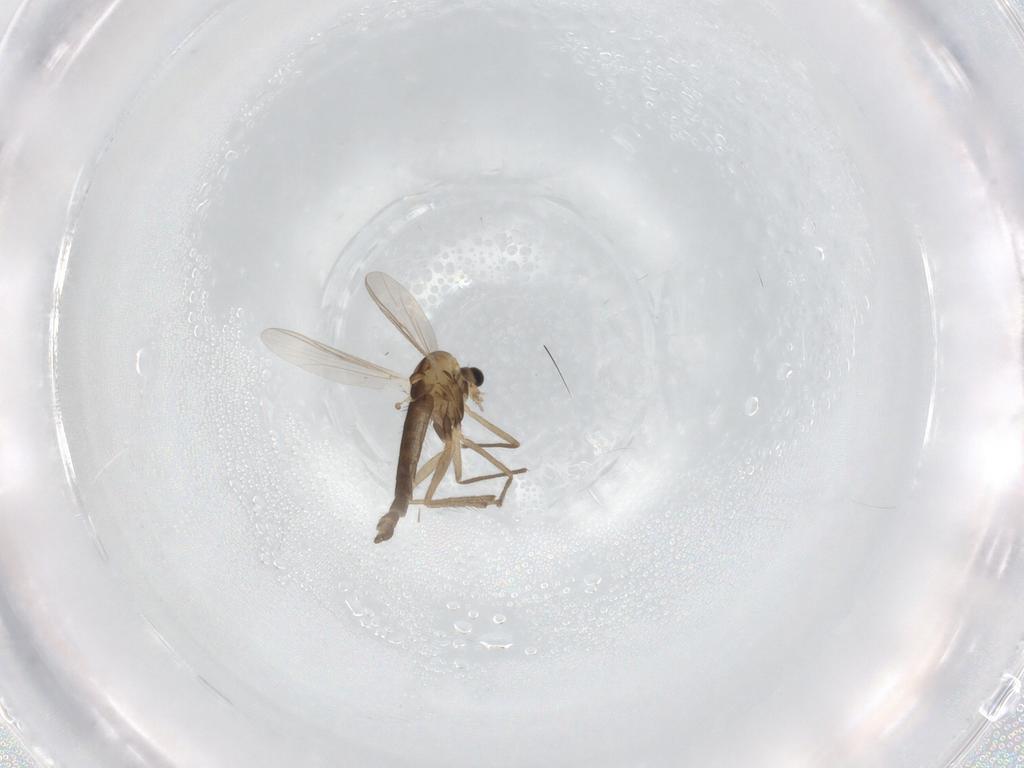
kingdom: Animalia
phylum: Arthropoda
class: Insecta
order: Diptera
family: Chironomidae
